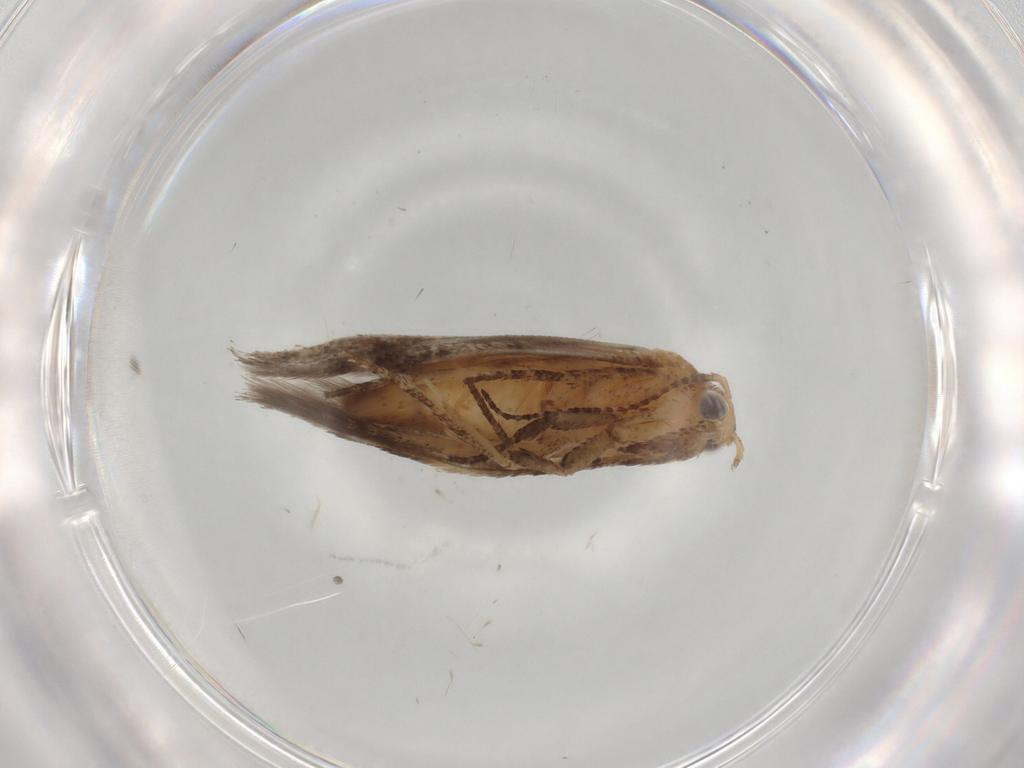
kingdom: Animalia
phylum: Arthropoda
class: Insecta
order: Lepidoptera
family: Plutellidae
